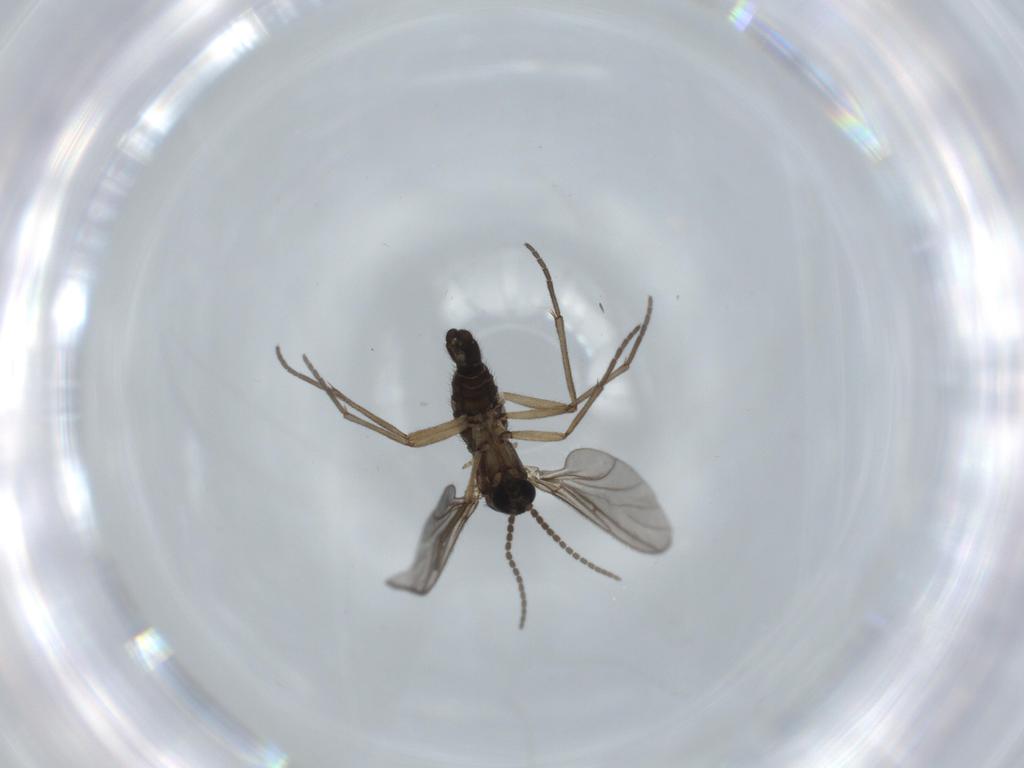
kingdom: Animalia
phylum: Arthropoda
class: Insecta
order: Diptera
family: Sciaridae
